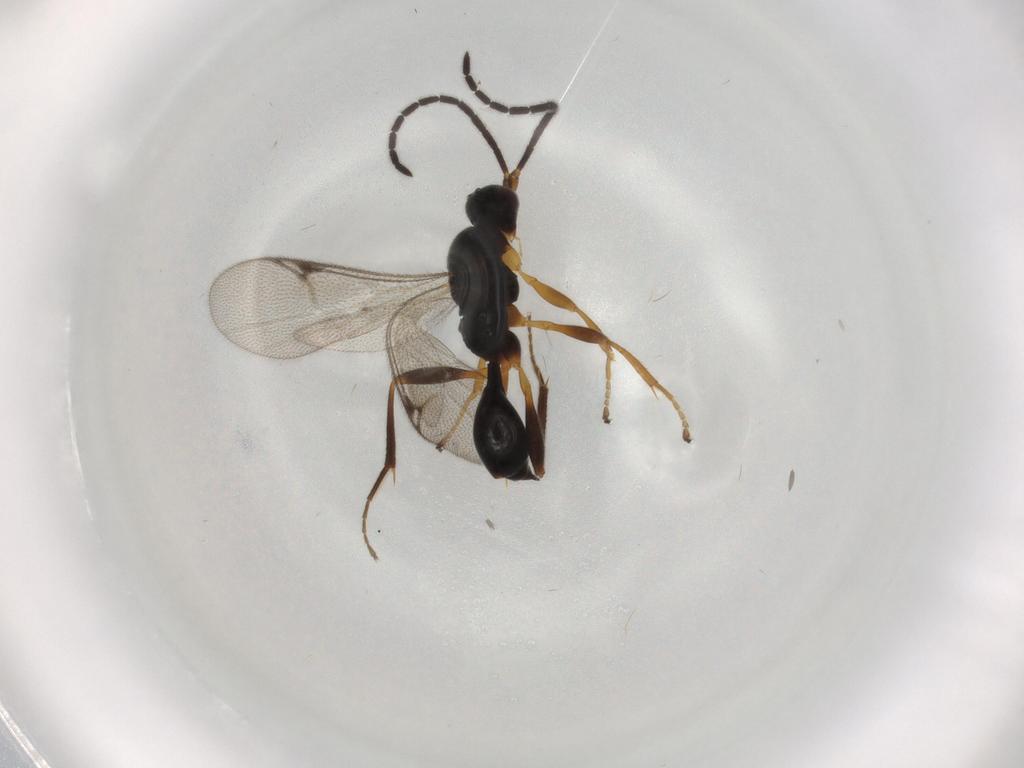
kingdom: Animalia
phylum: Arthropoda
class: Insecta
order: Hymenoptera
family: Proctotrupidae
